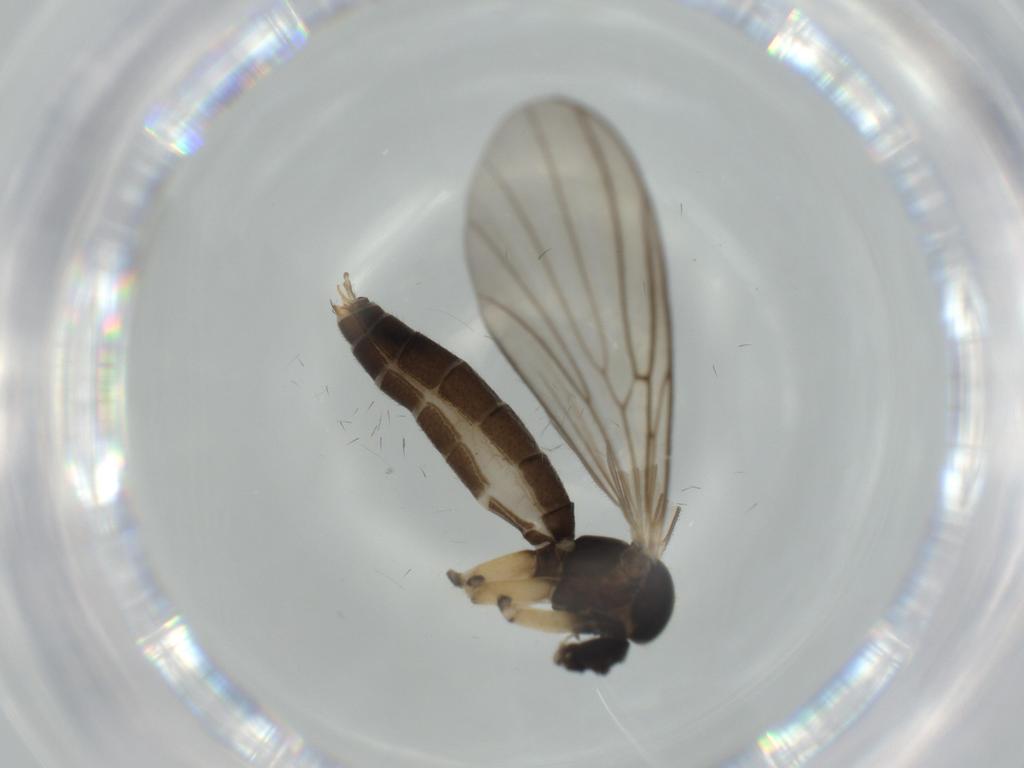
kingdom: Animalia
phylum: Arthropoda
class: Insecta
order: Diptera
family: Mycetophilidae
